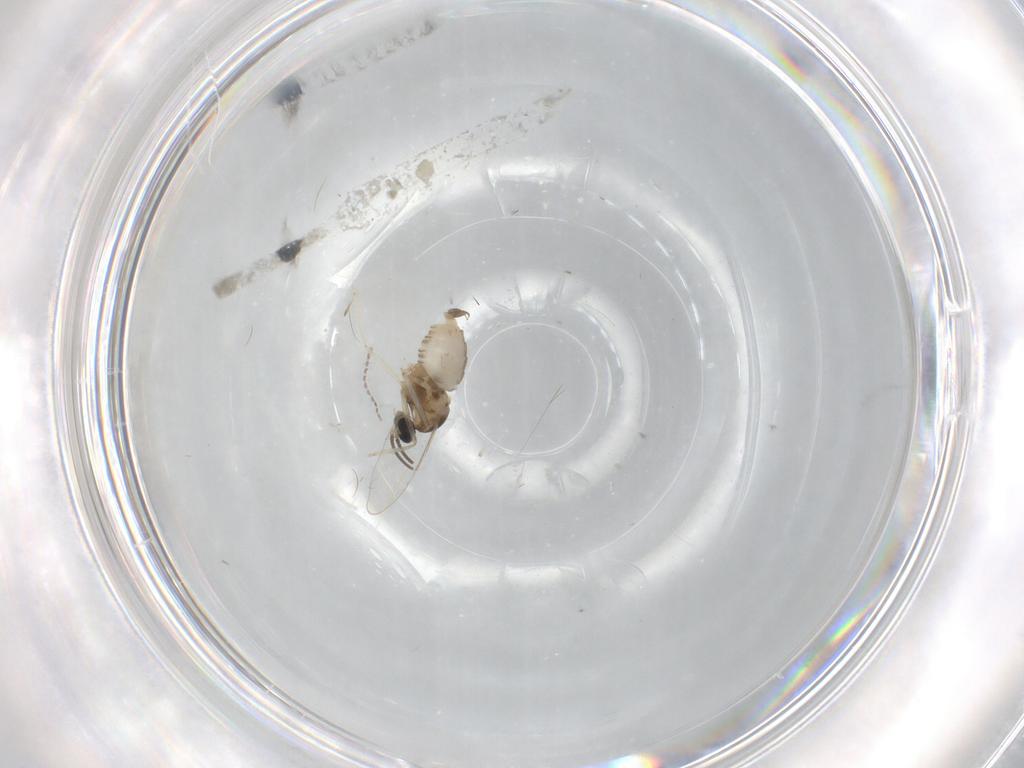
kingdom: Animalia
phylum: Arthropoda
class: Insecta
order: Diptera
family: Cecidomyiidae
